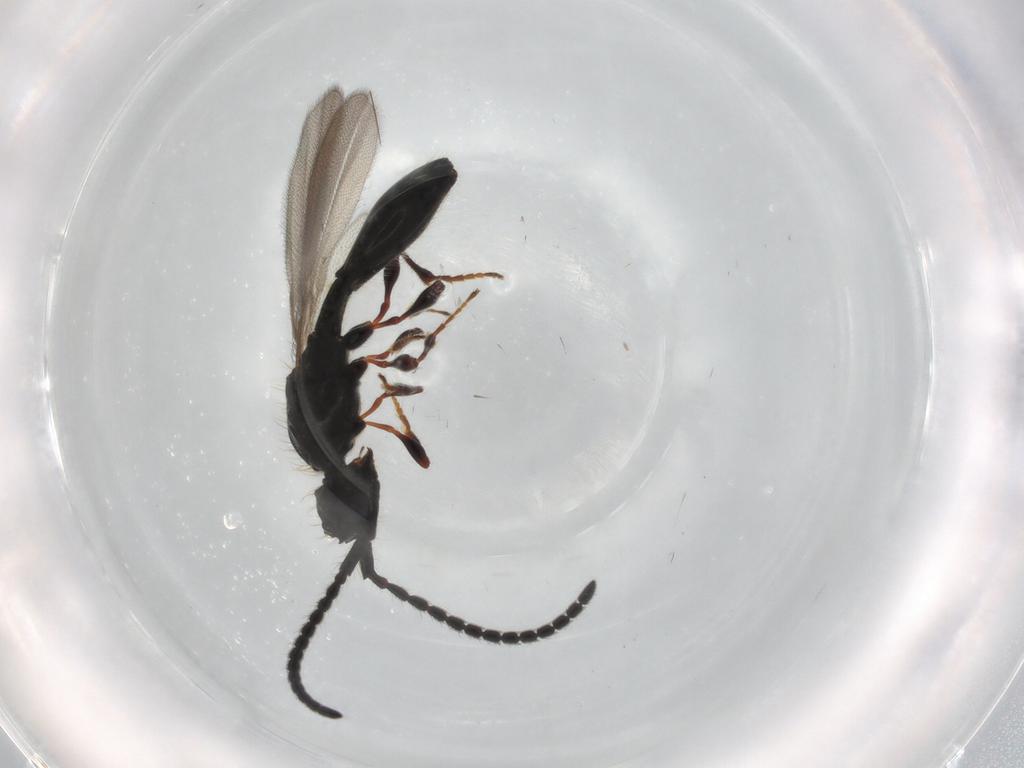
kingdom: Animalia
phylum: Arthropoda
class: Insecta
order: Hymenoptera
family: Diapriidae
